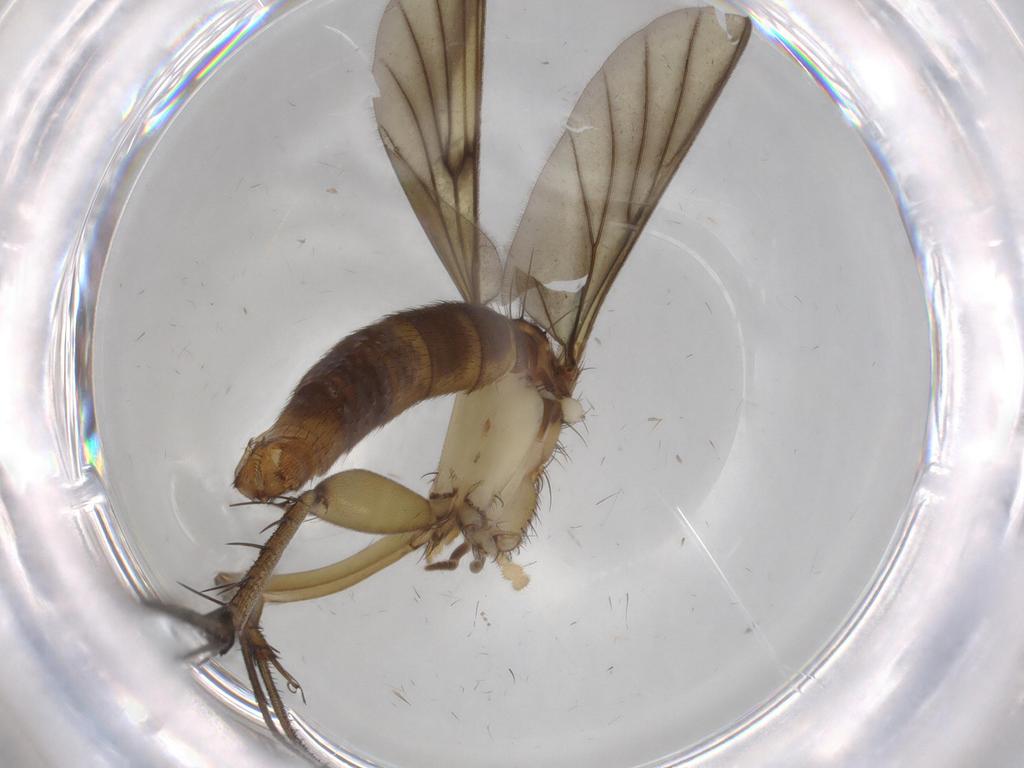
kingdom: Animalia
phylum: Arthropoda
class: Insecta
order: Diptera
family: Mycetophilidae
